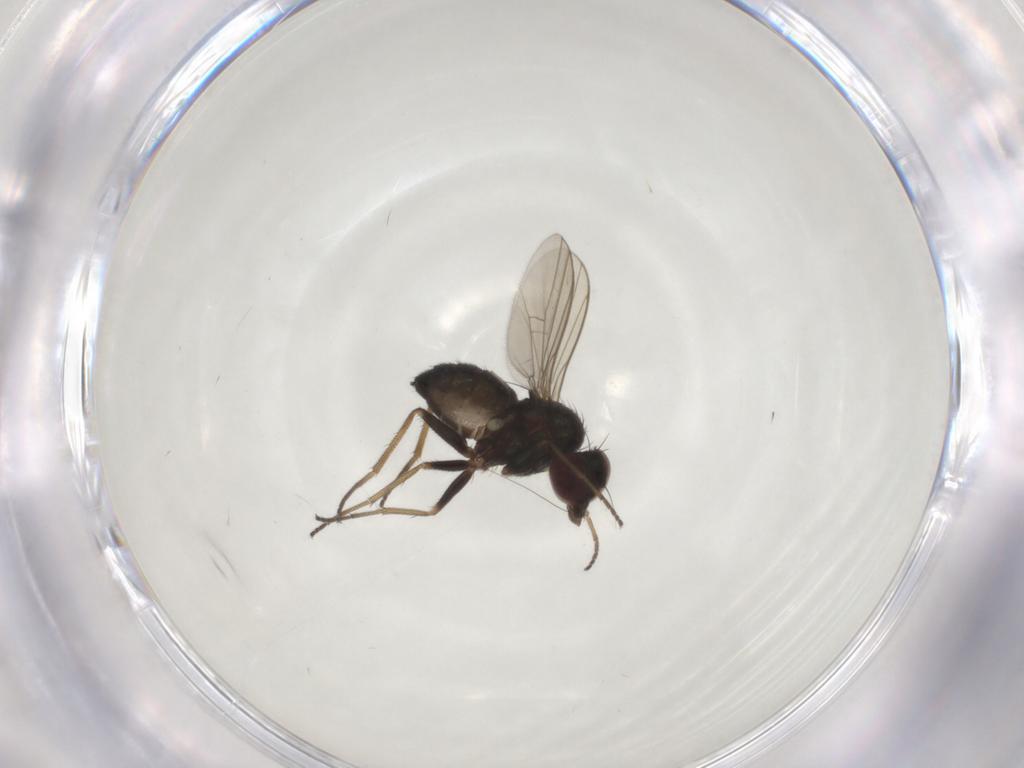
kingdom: Animalia
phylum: Arthropoda
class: Insecta
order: Diptera
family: Dolichopodidae
